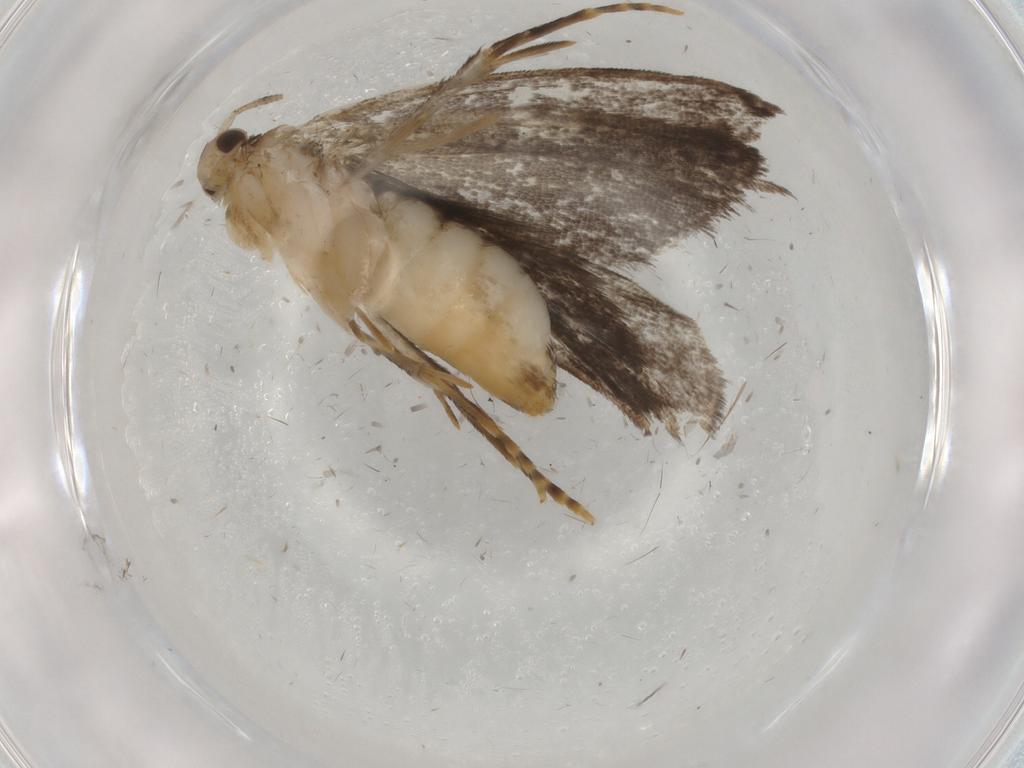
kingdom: Animalia
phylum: Arthropoda
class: Insecta
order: Lepidoptera
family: Dryadaulidae
